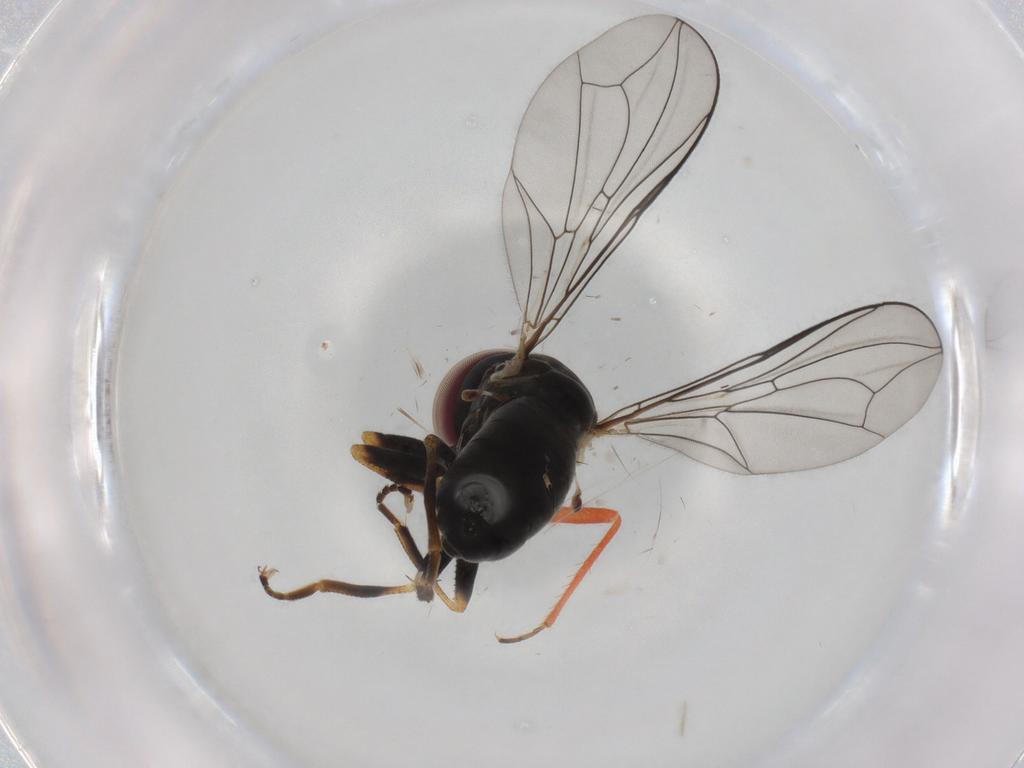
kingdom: Animalia
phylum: Arthropoda
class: Insecta
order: Diptera
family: Pipunculidae
